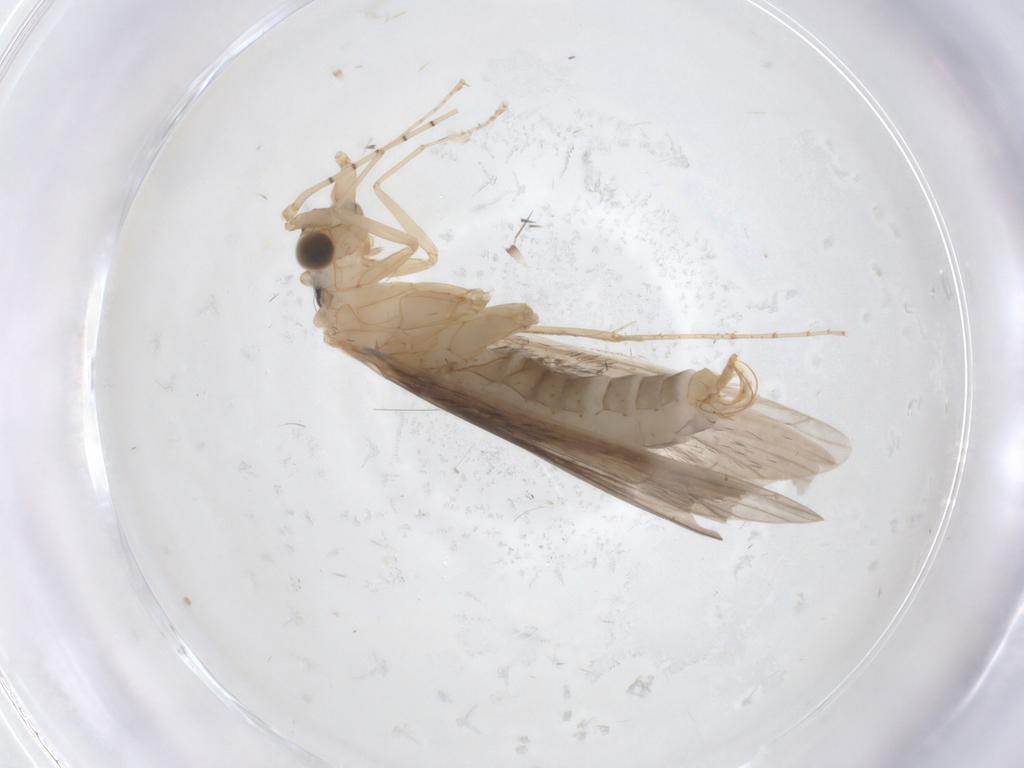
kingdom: Animalia
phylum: Arthropoda
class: Insecta
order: Trichoptera
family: Leptoceridae
